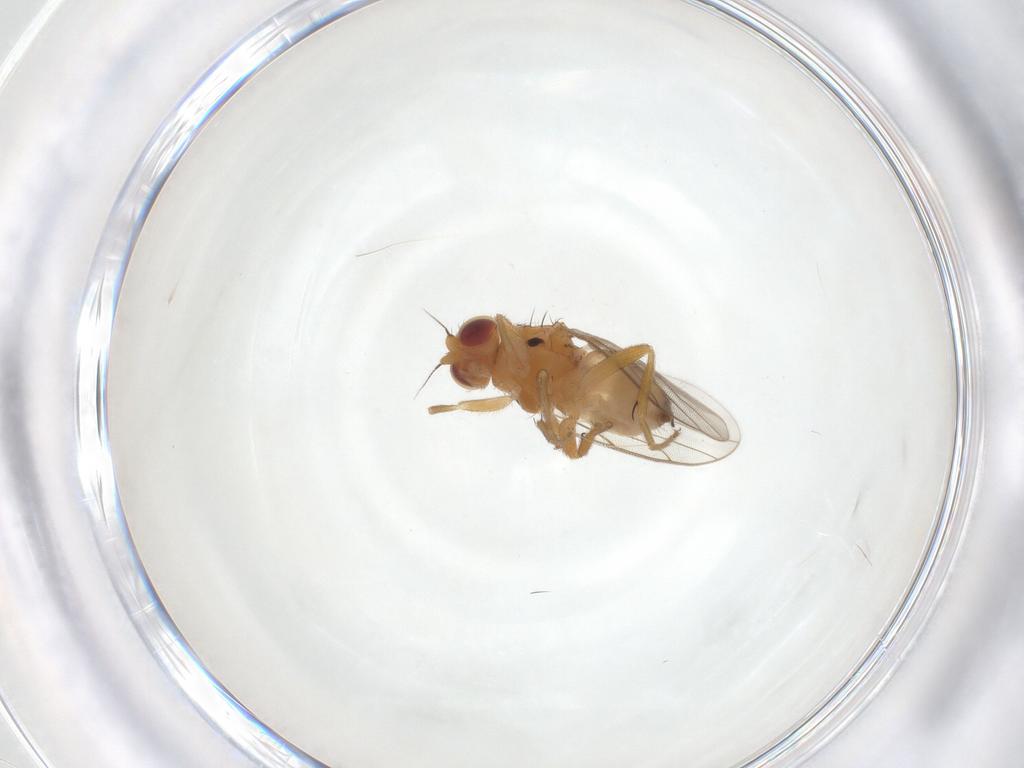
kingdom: Animalia
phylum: Arthropoda
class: Insecta
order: Diptera
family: Chloropidae
